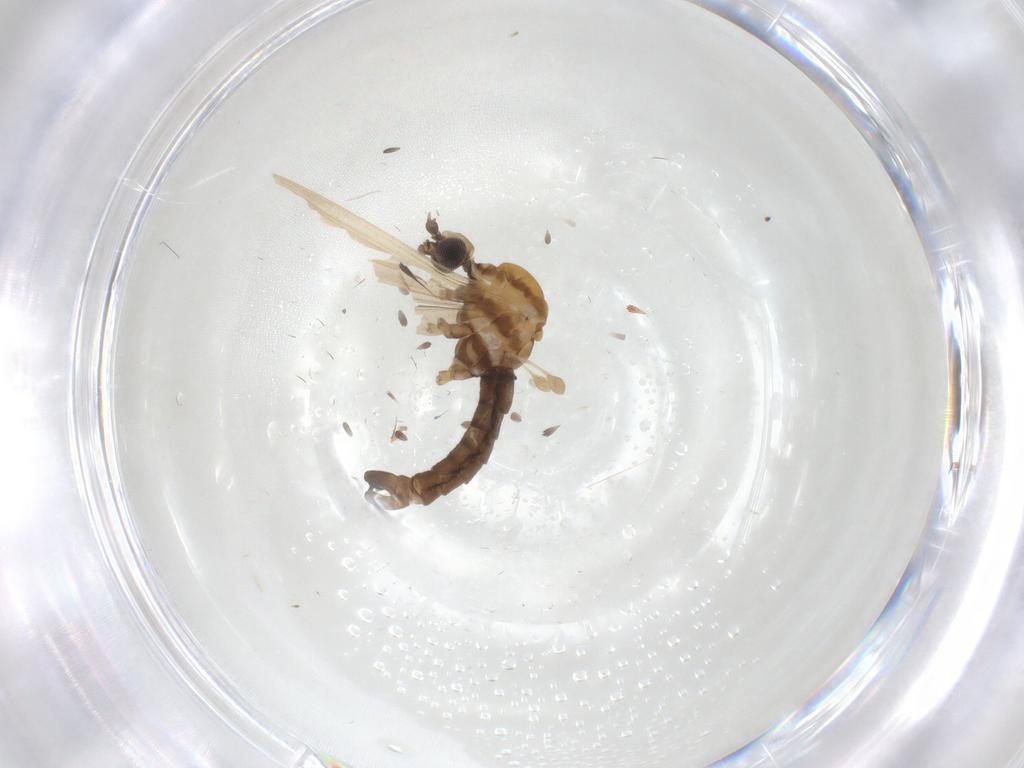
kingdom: Animalia
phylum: Arthropoda
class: Insecta
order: Diptera
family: Limoniidae
